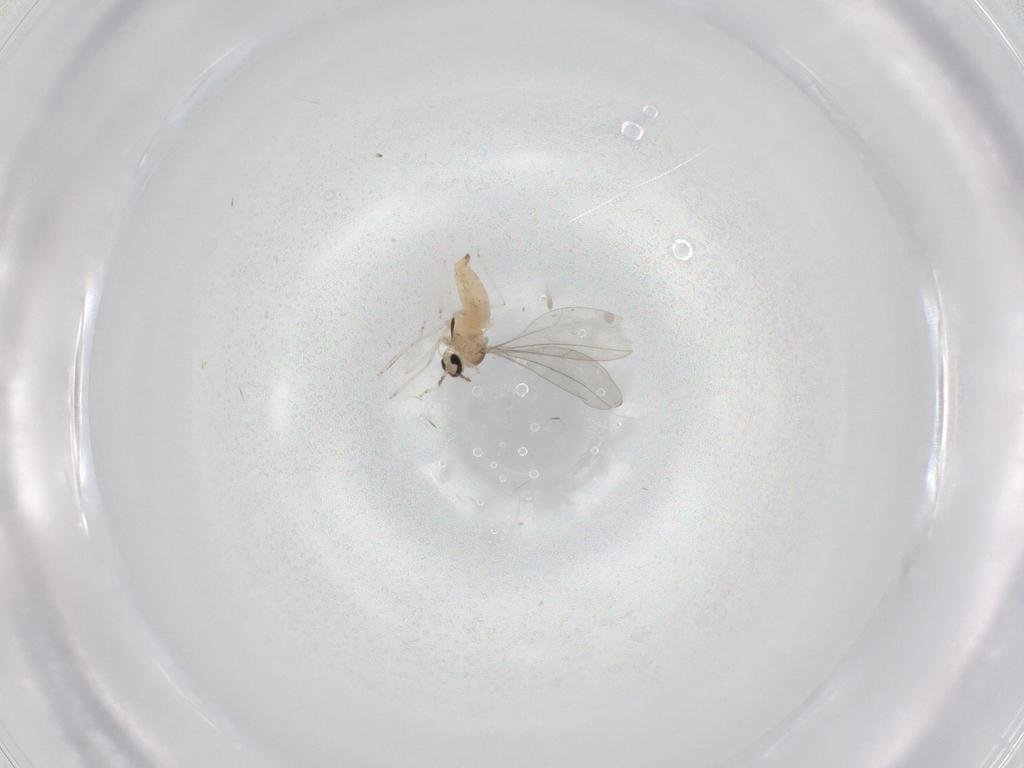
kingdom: Animalia
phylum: Arthropoda
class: Insecta
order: Diptera
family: Cecidomyiidae
